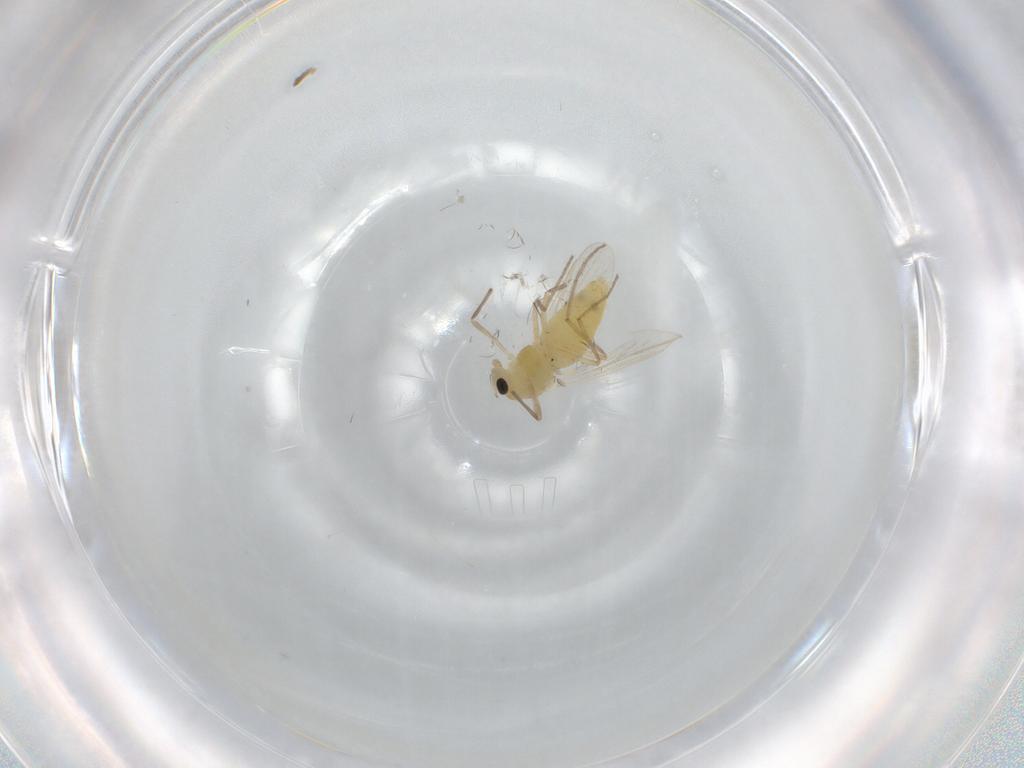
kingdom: Animalia
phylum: Arthropoda
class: Insecta
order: Diptera
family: Chironomidae
